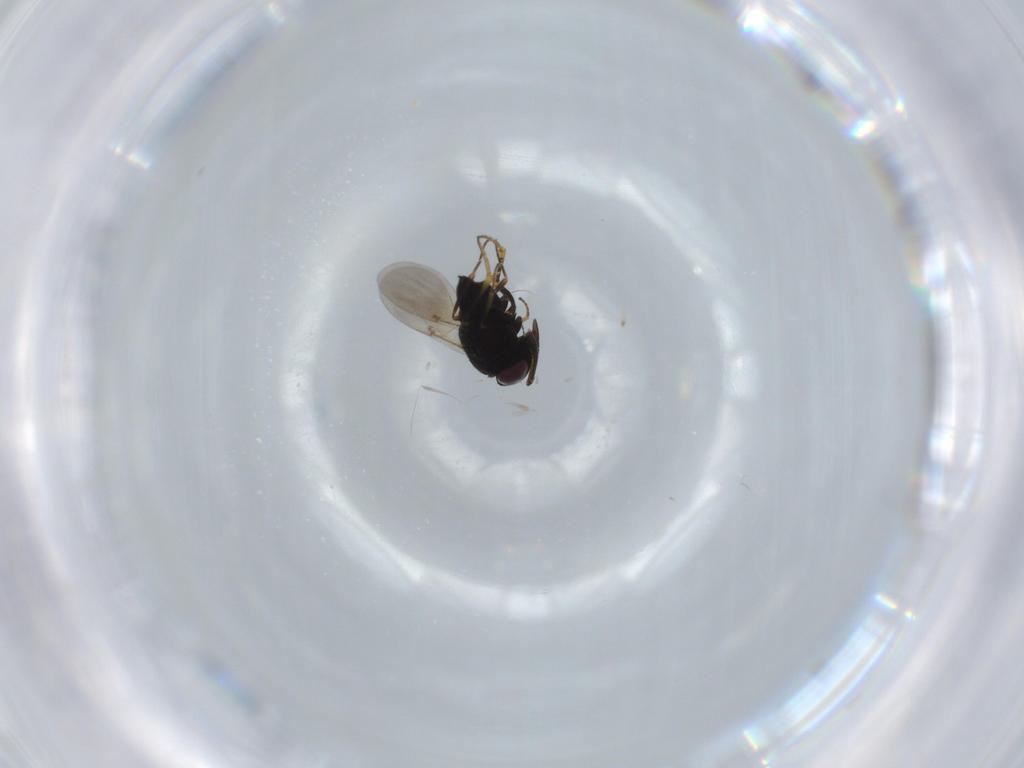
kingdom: Animalia
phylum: Arthropoda
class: Insecta
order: Hymenoptera
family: Encyrtidae
